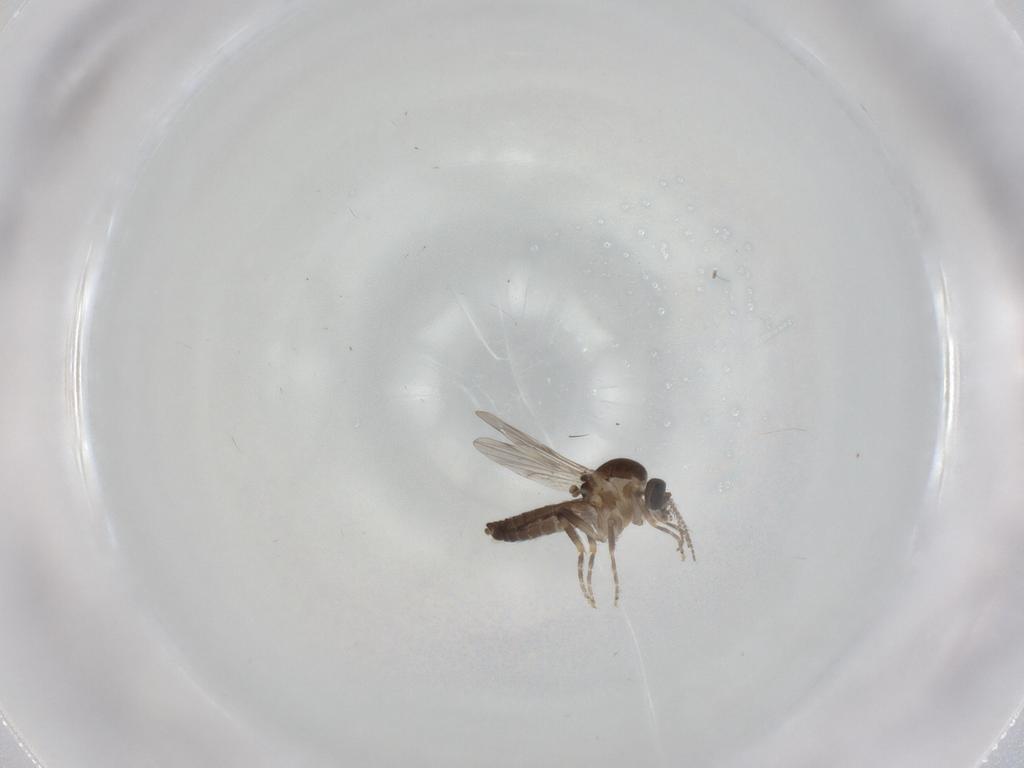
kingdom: Animalia
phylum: Arthropoda
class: Insecta
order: Diptera
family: Ceratopogonidae
